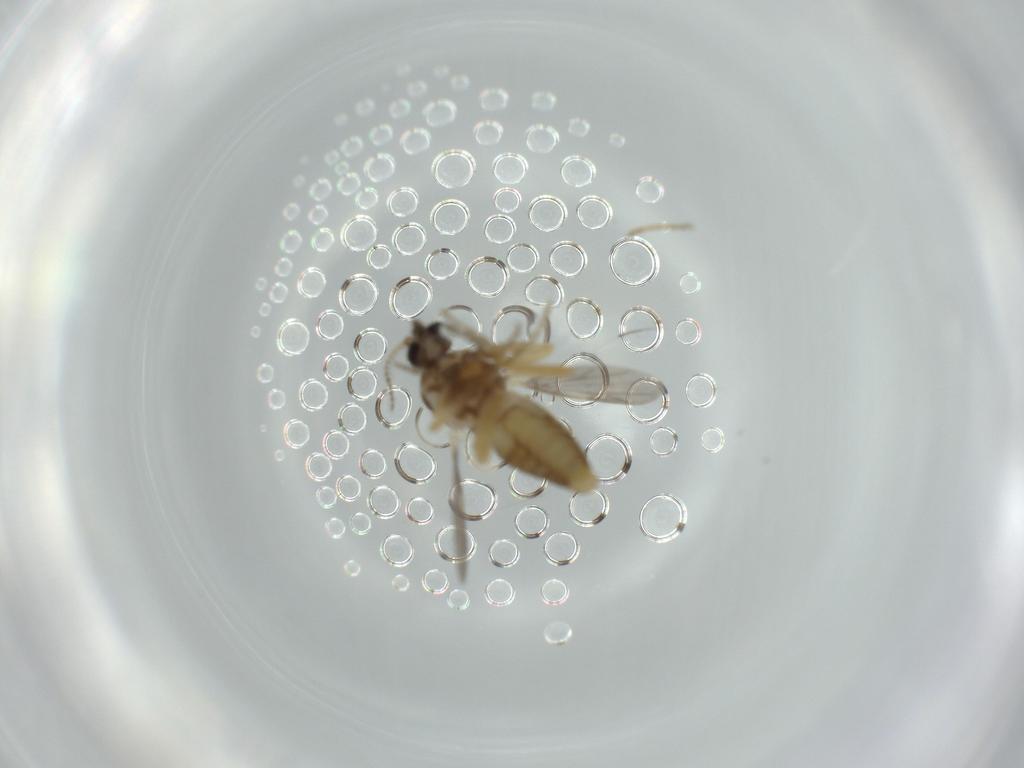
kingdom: Animalia
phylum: Arthropoda
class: Insecta
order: Diptera
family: Ceratopogonidae
